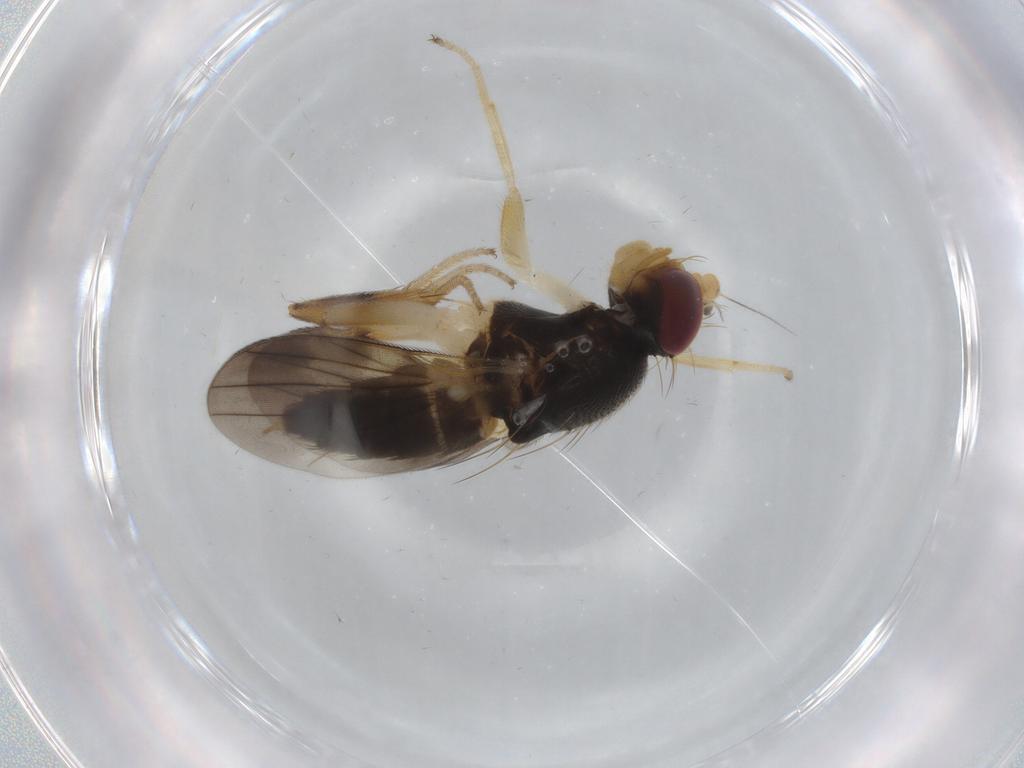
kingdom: Animalia
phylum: Arthropoda
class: Insecta
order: Diptera
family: Clusiidae
